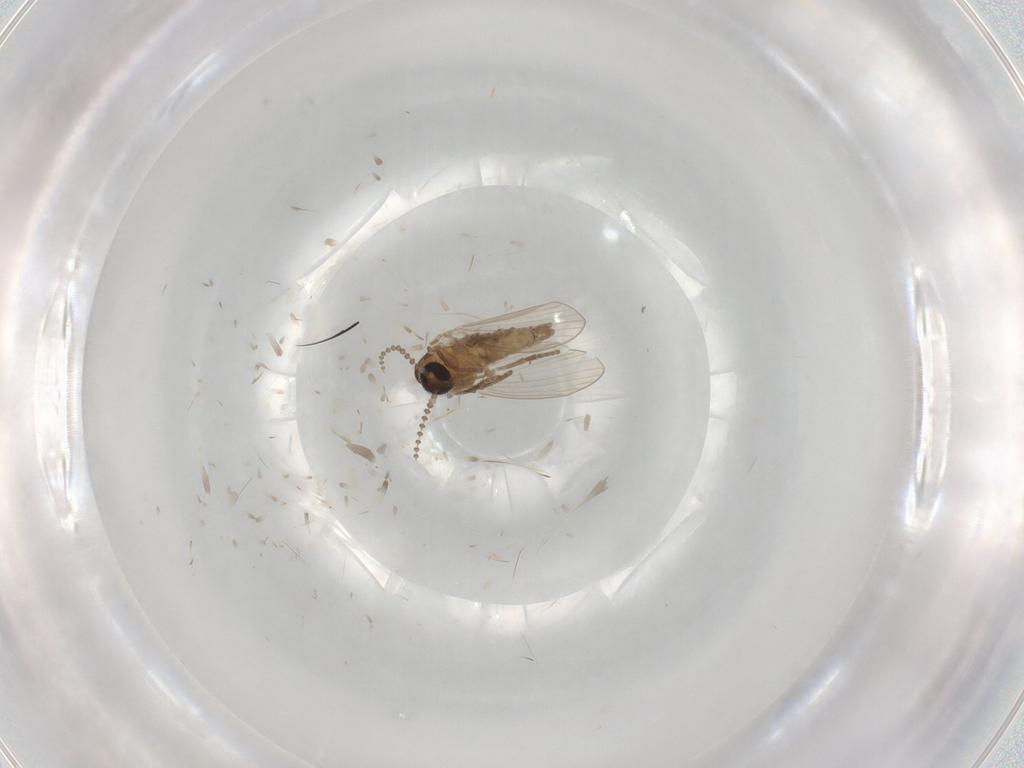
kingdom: Animalia
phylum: Arthropoda
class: Insecta
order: Diptera
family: Psychodidae
